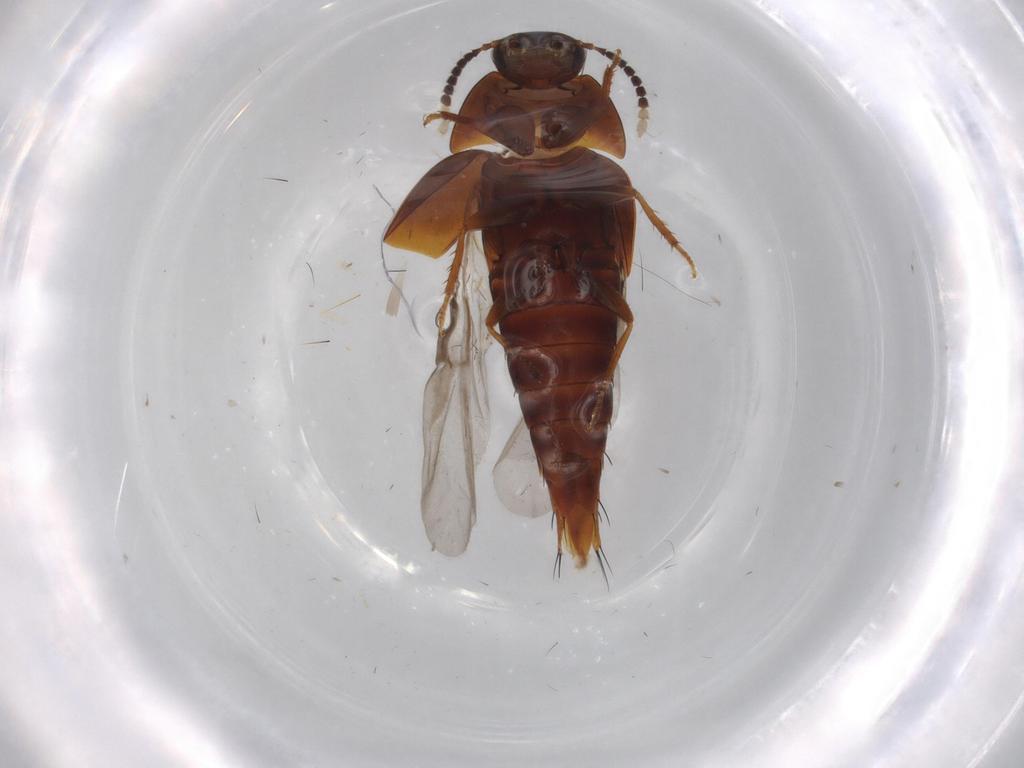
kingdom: Animalia
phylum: Arthropoda
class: Insecta
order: Coleoptera
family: Staphylinidae
